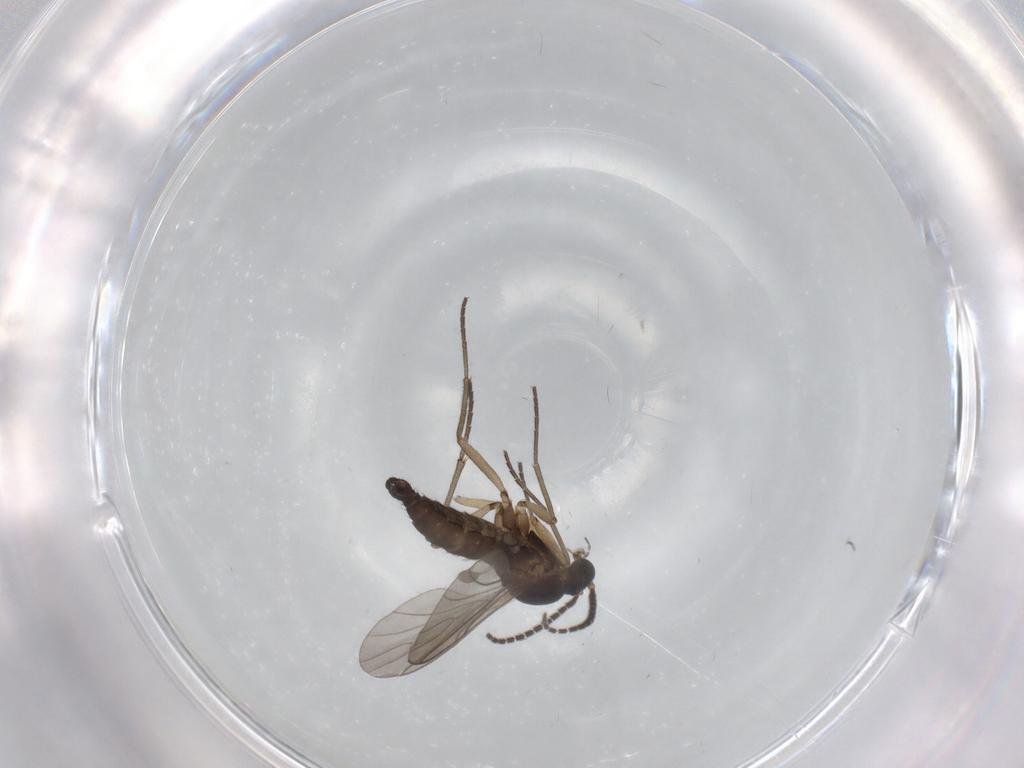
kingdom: Animalia
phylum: Arthropoda
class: Insecta
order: Diptera
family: Sciaridae
